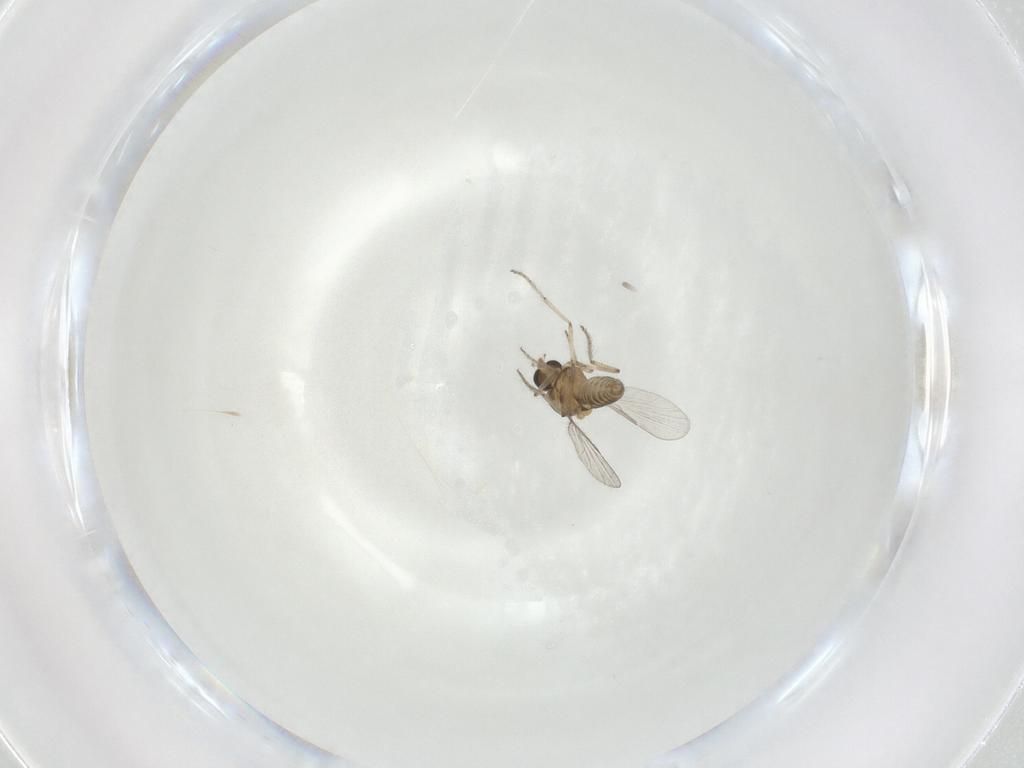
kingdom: Animalia
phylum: Arthropoda
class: Insecta
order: Diptera
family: Ceratopogonidae
